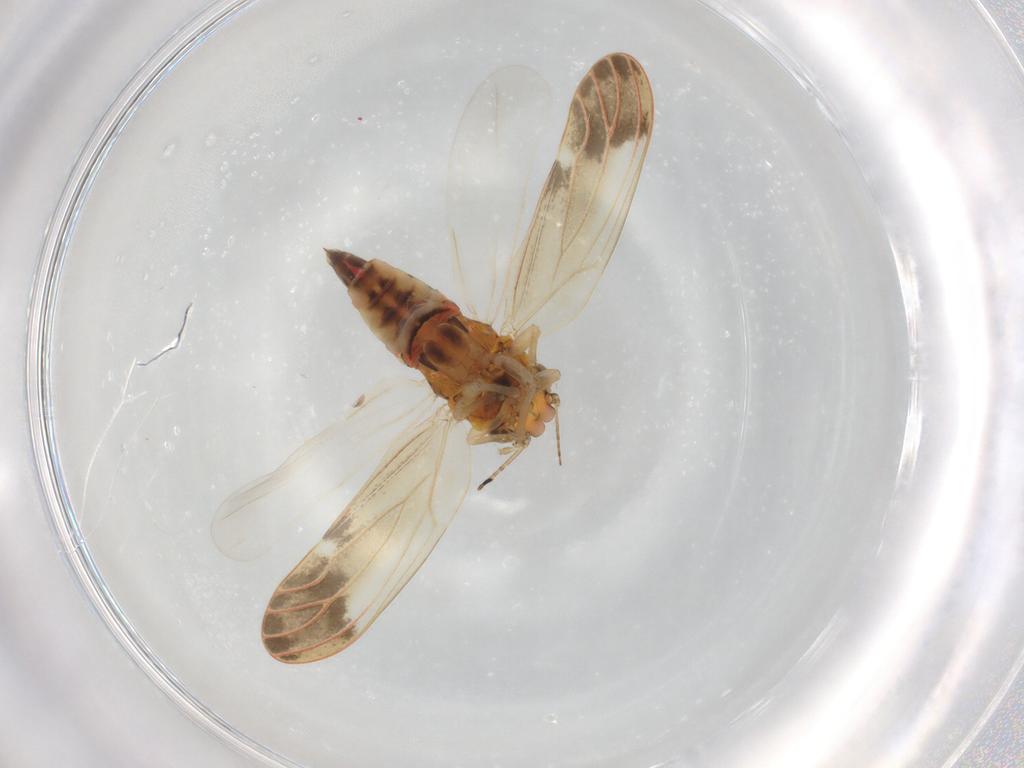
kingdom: Animalia
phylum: Arthropoda
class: Insecta
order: Hemiptera
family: Aphalaridae
